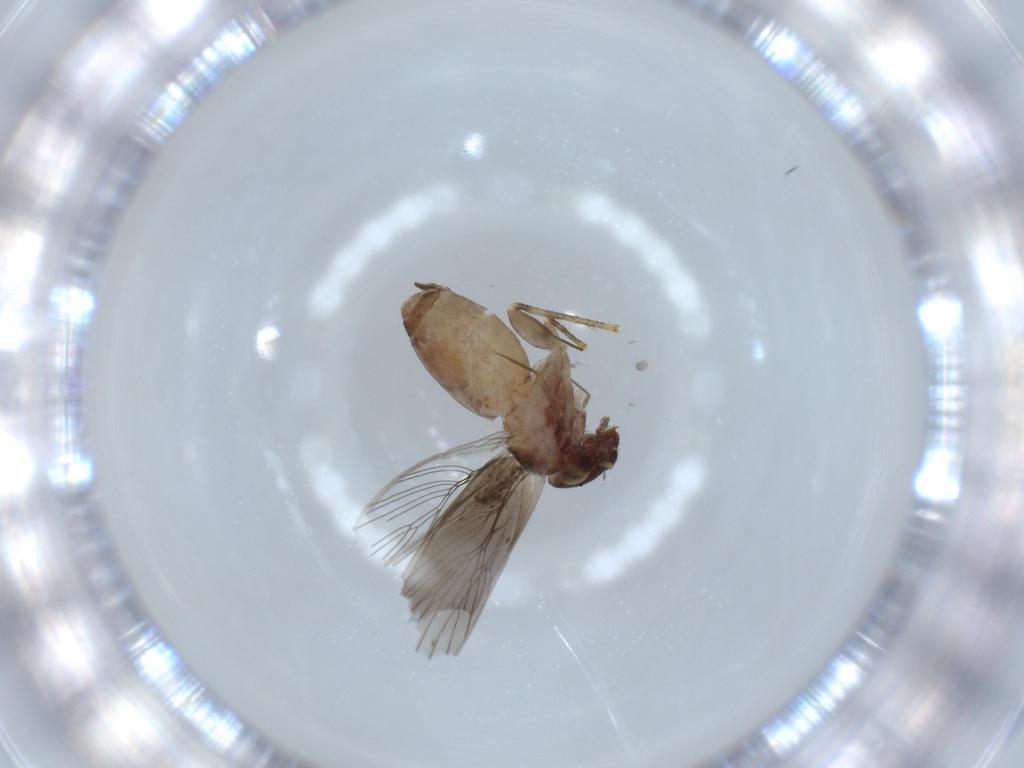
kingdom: Animalia
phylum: Arthropoda
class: Insecta
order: Psocodea
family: Lepidopsocidae
